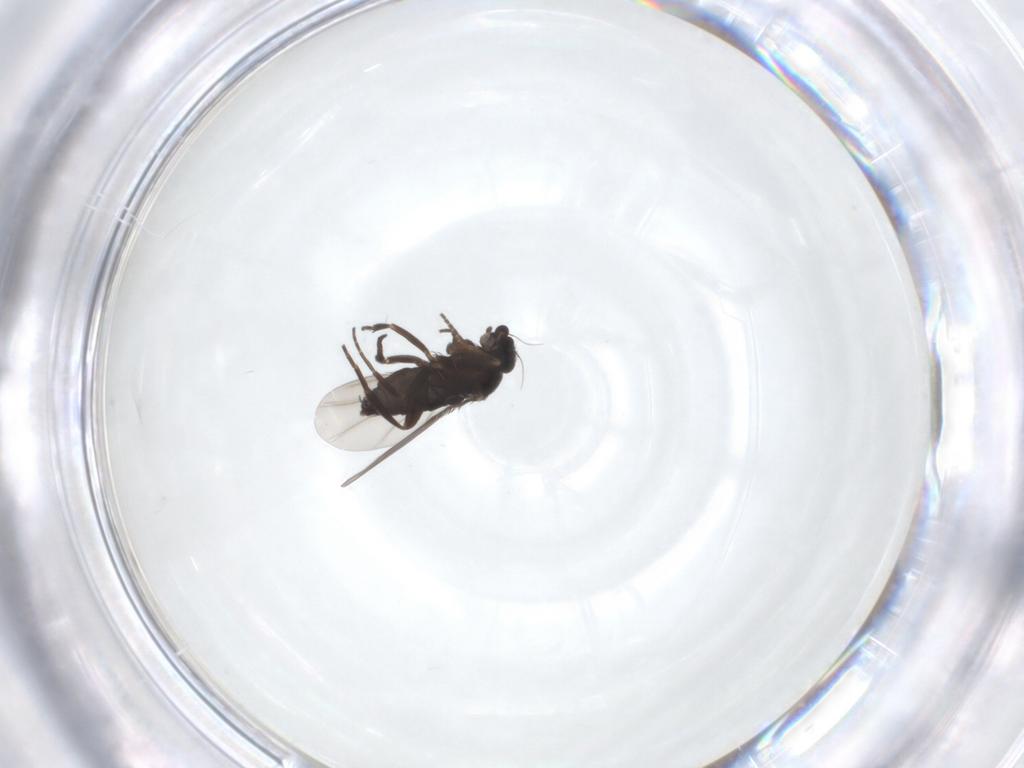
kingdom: Animalia
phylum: Arthropoda
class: Insecta
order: Diptera
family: Phoridae
